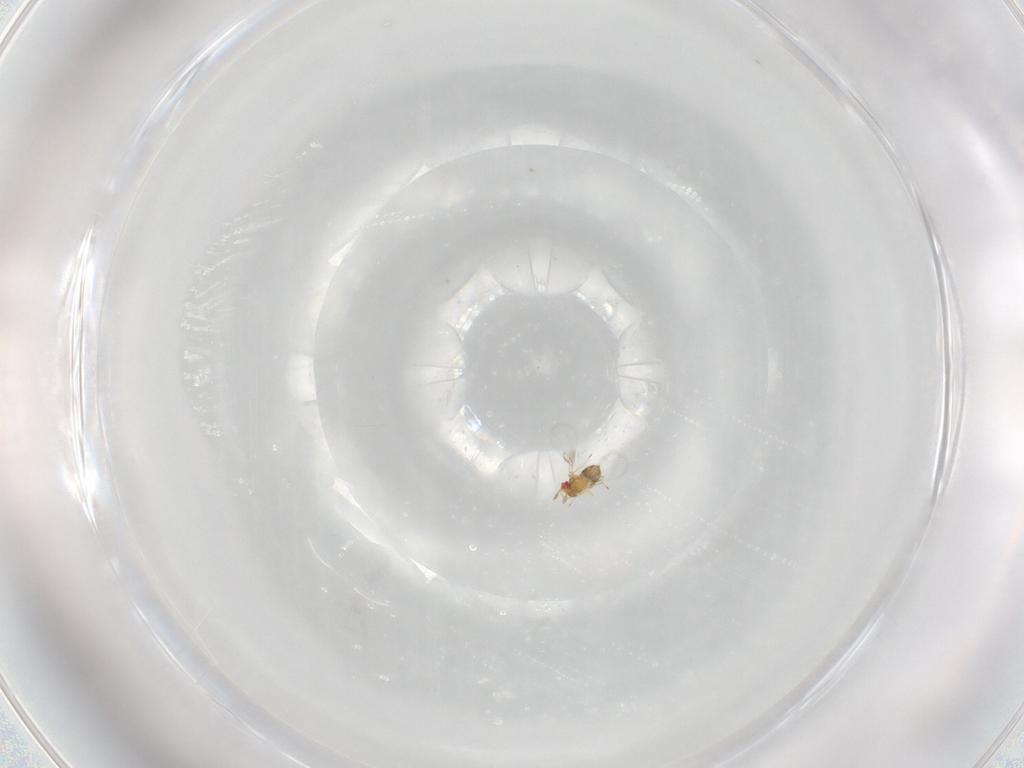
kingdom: Animalia
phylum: Arthropoda
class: Insecta
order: Hymenoptera
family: Trichogrammatidae
